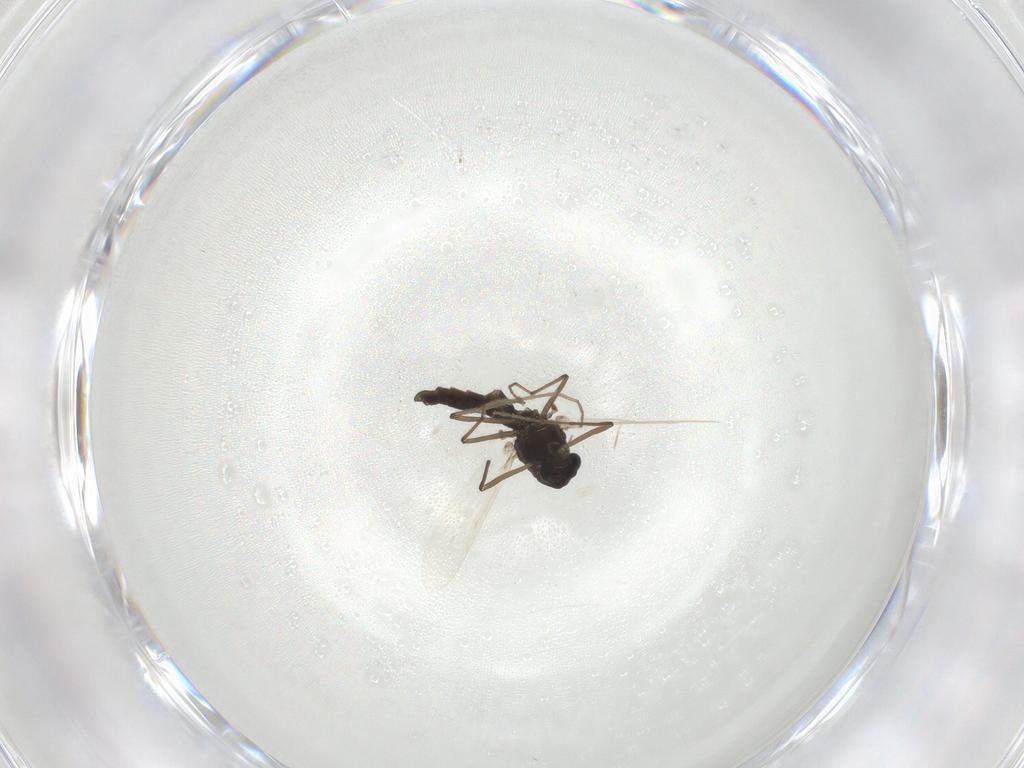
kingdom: Animalia
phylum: Arthropoda
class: Insecta
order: Diptera
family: Chironomidae
